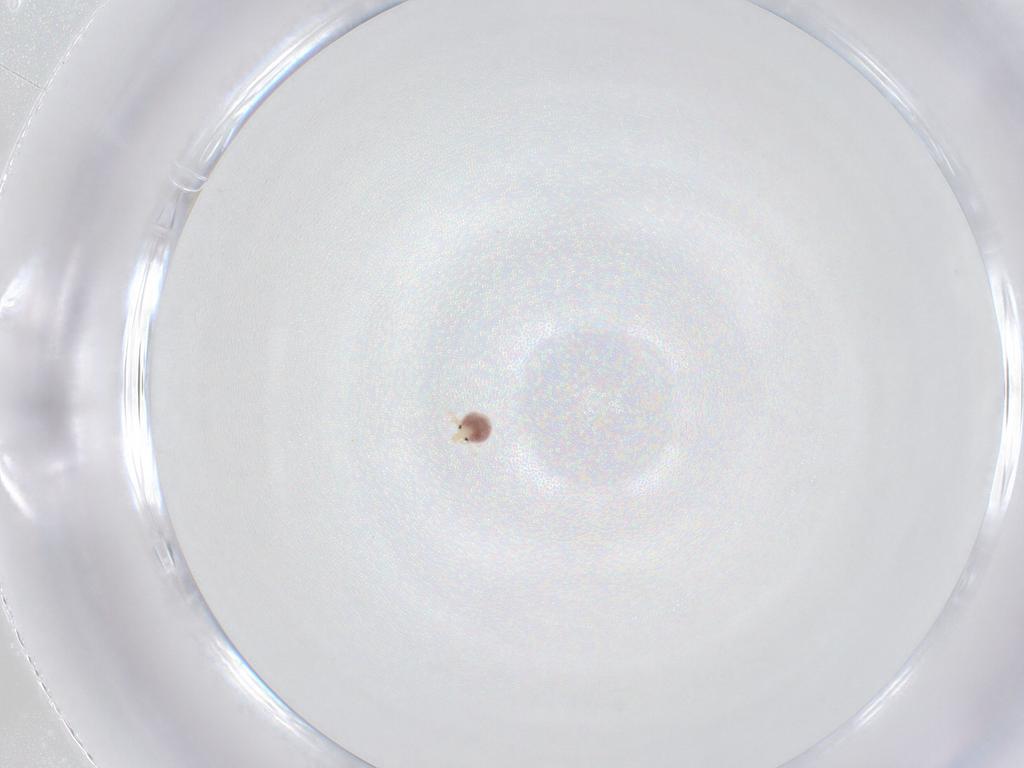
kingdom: Animalia
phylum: Arthropoda
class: Arachnida
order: Trombidiformes
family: Pionidae
